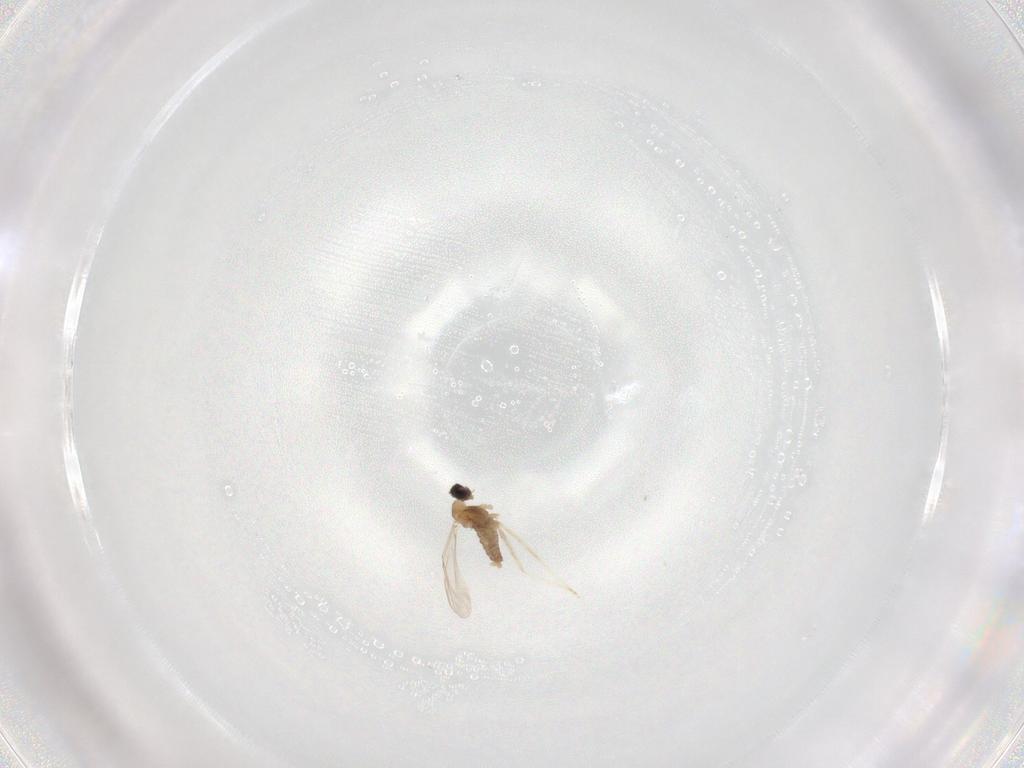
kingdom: Animalia
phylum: Arthropoda
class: Insecta
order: Diptera
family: Cecidomyiidae
